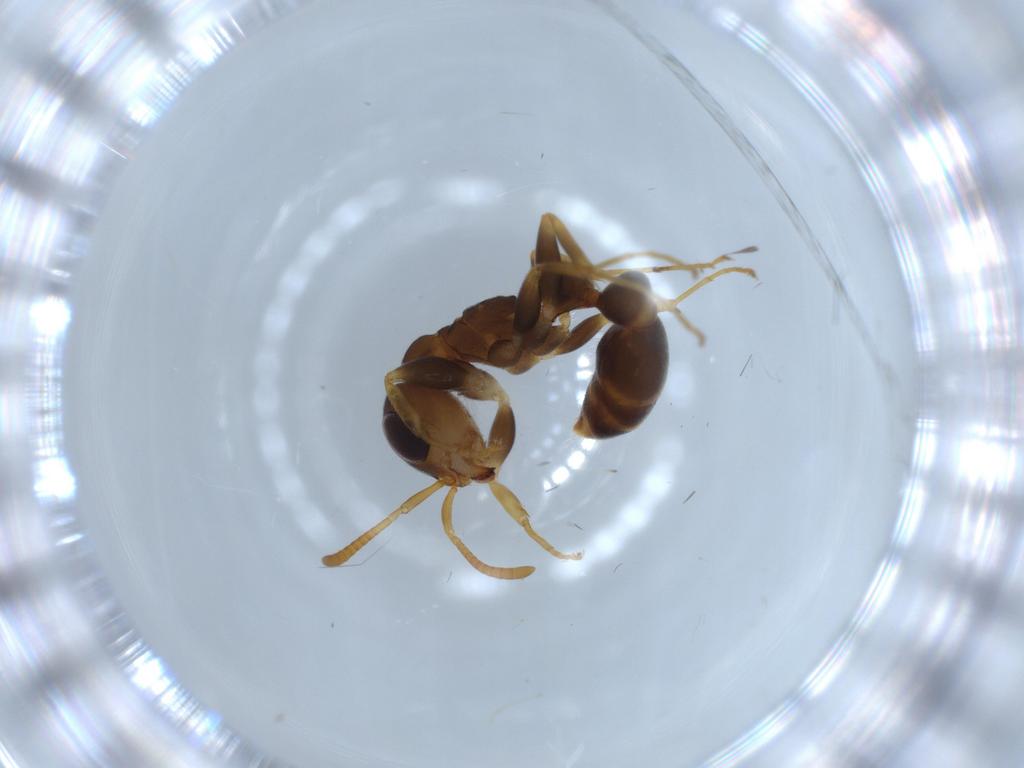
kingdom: Animalia
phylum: Arthropoda
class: Insecta
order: Hymenoptera
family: Formicidae
